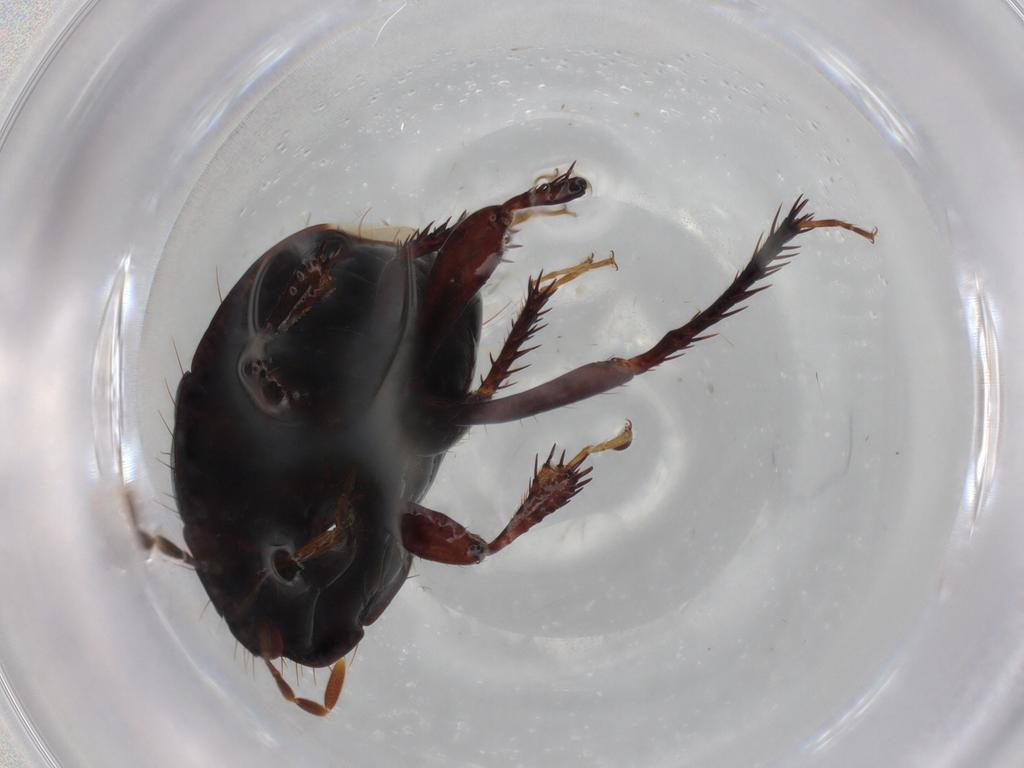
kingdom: Animalia
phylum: Arthropoda
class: Insecta
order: Hemiptera
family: Cydnidae
